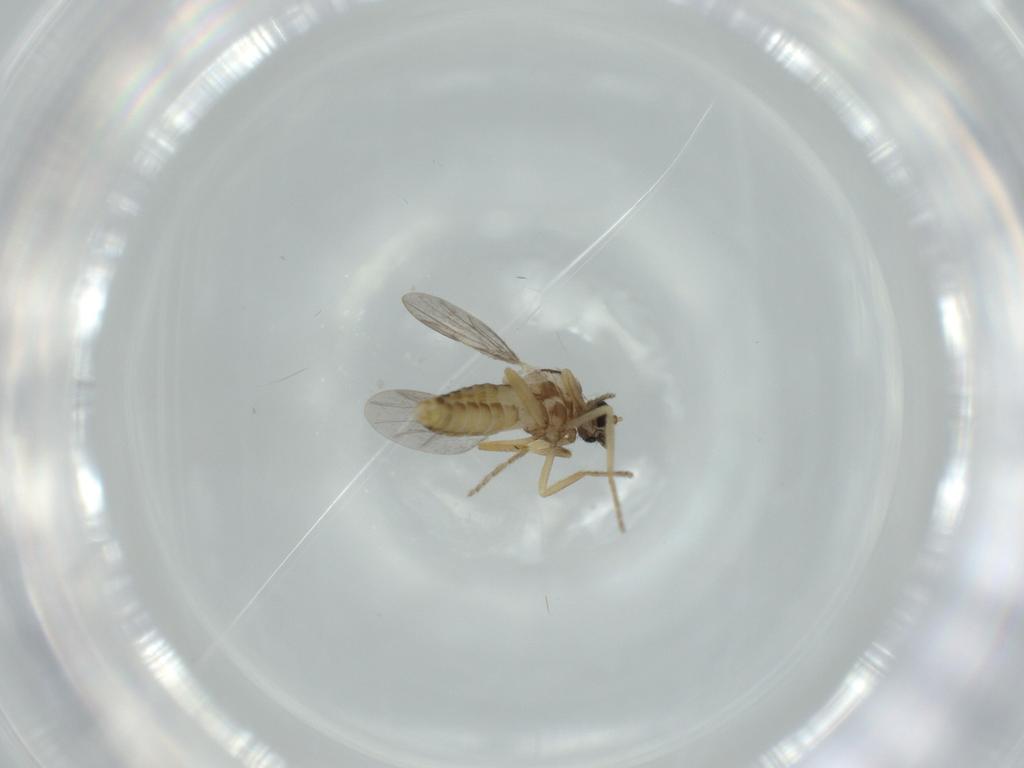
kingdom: Animalia
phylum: Arthropoda
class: Insecta
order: Diptera
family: Ceratopogonidae
